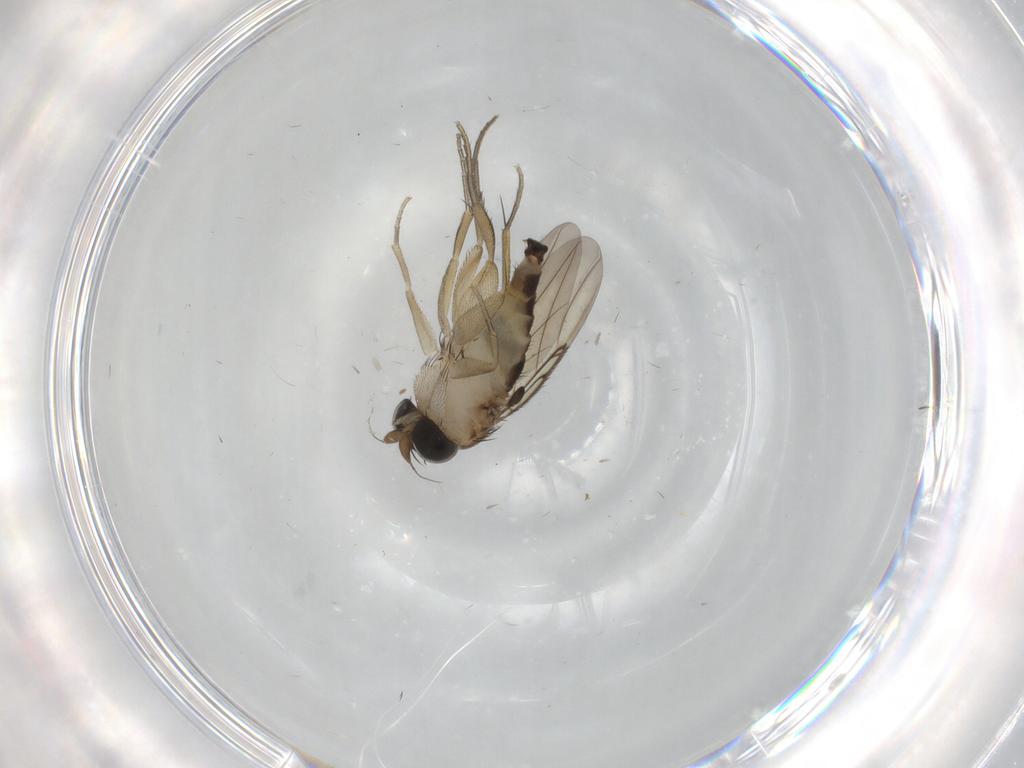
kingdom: Animalia
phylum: Arthropoda
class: Insecta
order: Diptera
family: Phoridae
